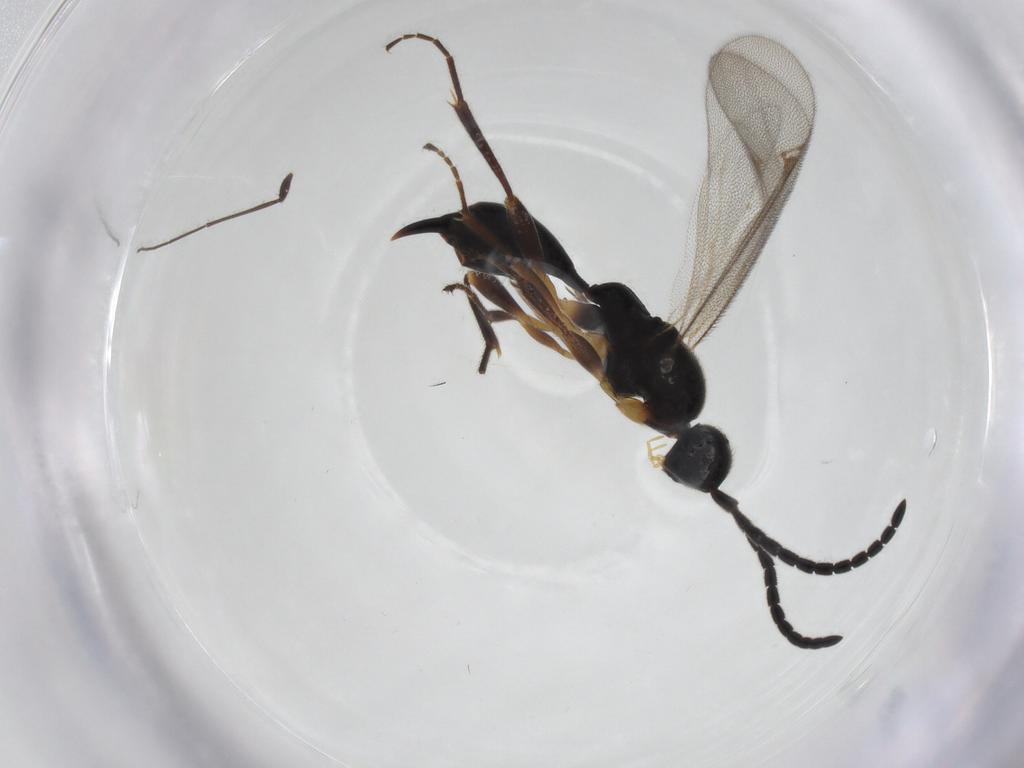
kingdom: Animalia
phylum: Arthropoda
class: Insecta
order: Hymenoptera
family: Proctotrupidae
